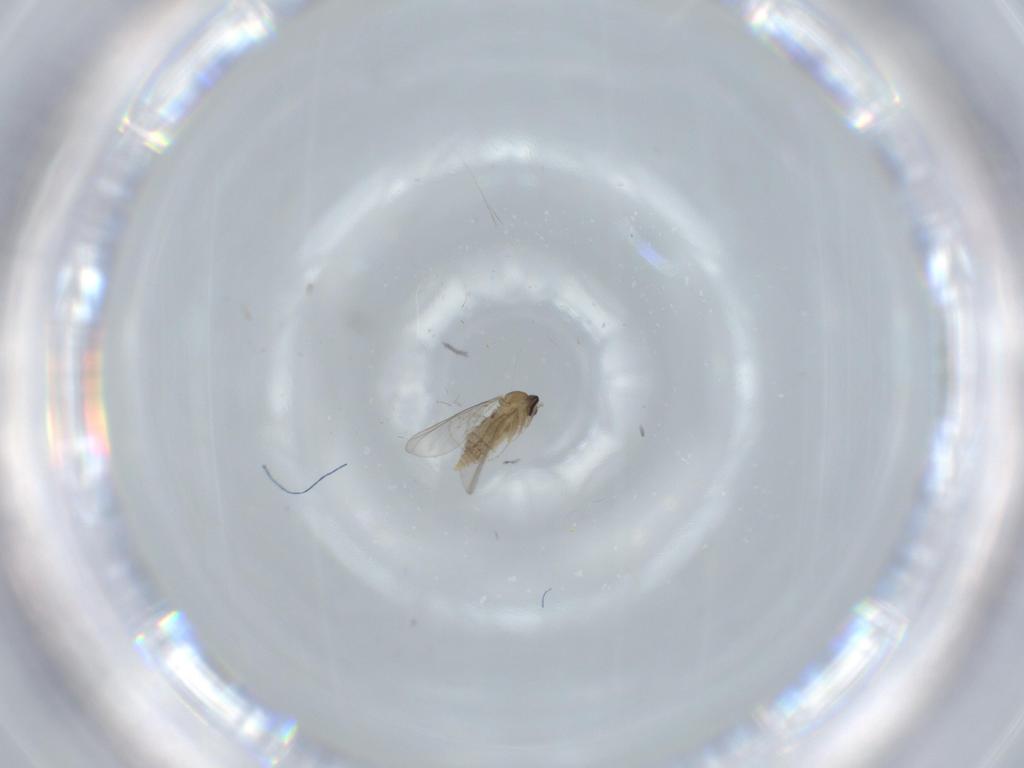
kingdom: Animalia
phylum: Arthropoda
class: Insecta
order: Diptera
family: Cecidomyiidae
